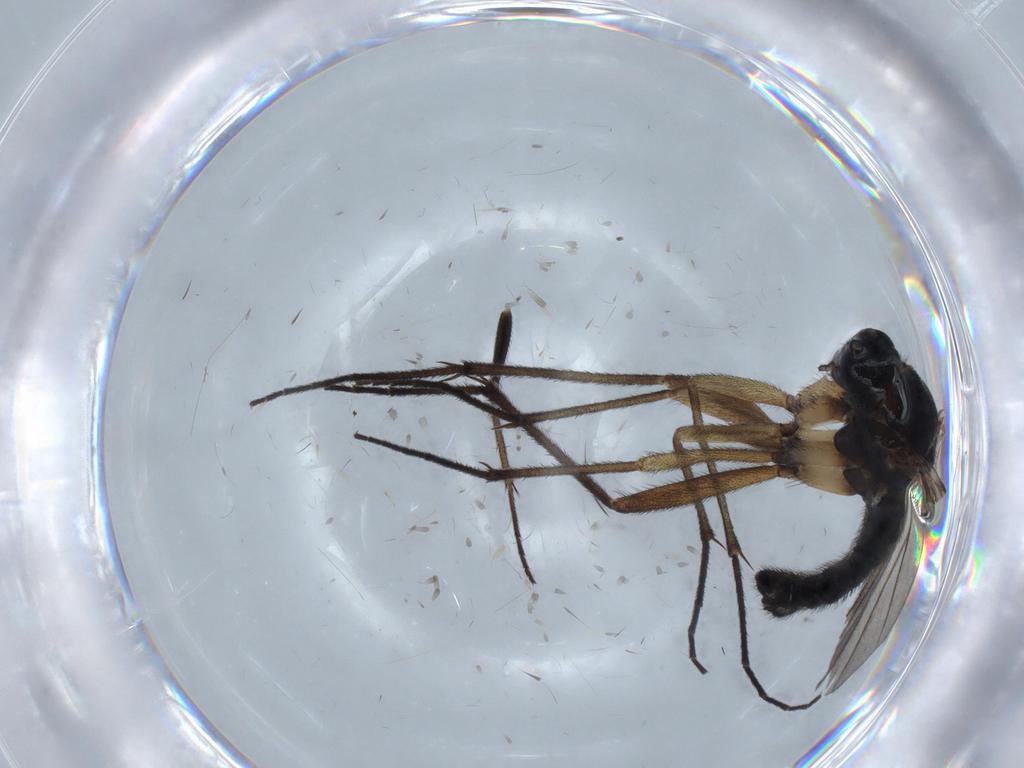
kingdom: Animalia
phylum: Arthropoda
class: Insecta
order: Diptera
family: Sciaridae
